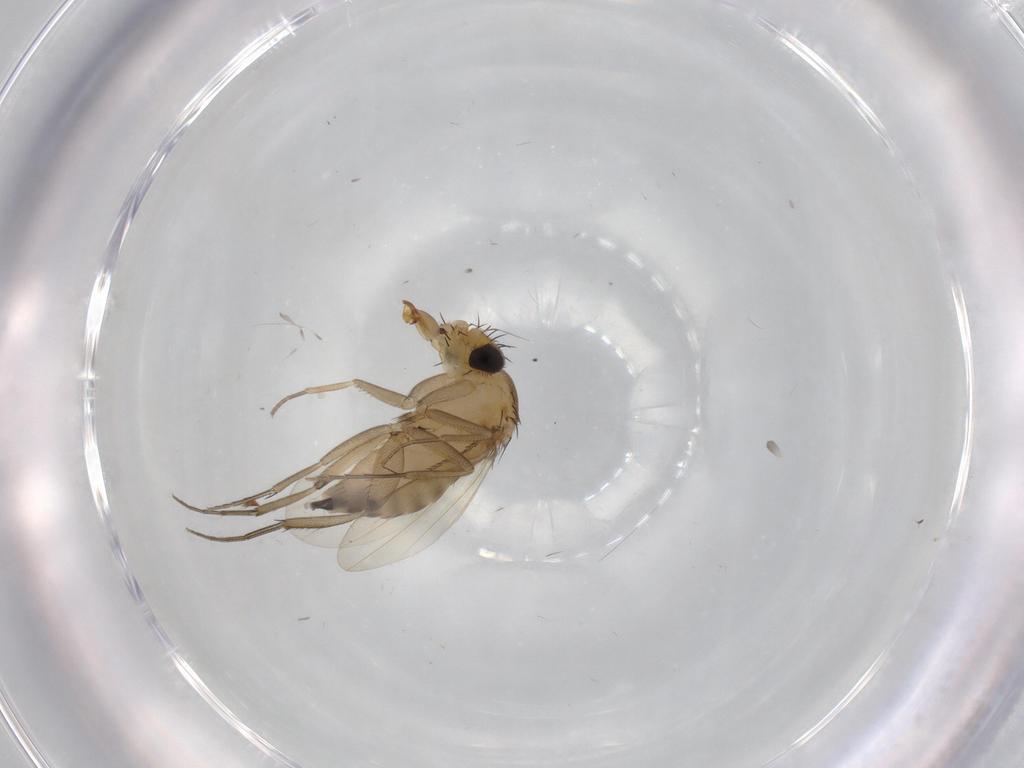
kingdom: Animalia
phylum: Arthropoda
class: Insecta
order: Diptera
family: Phoridae
